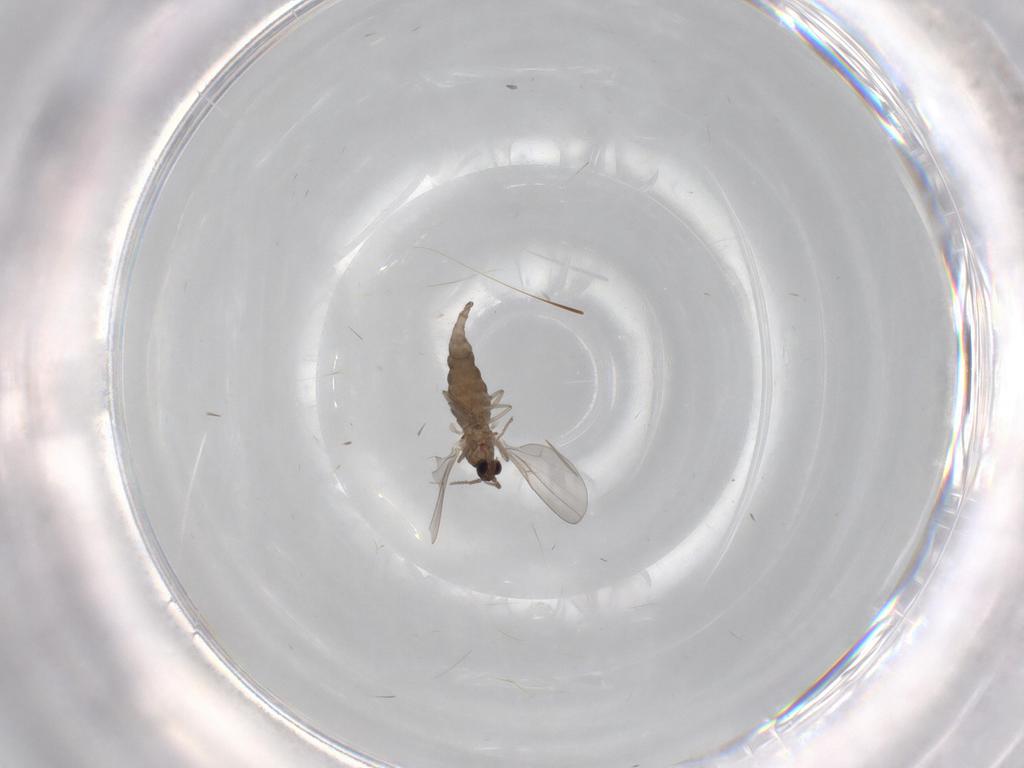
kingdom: Animalia
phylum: Arthropoda
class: Insecta
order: Diptera
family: Cecidomyiidae
